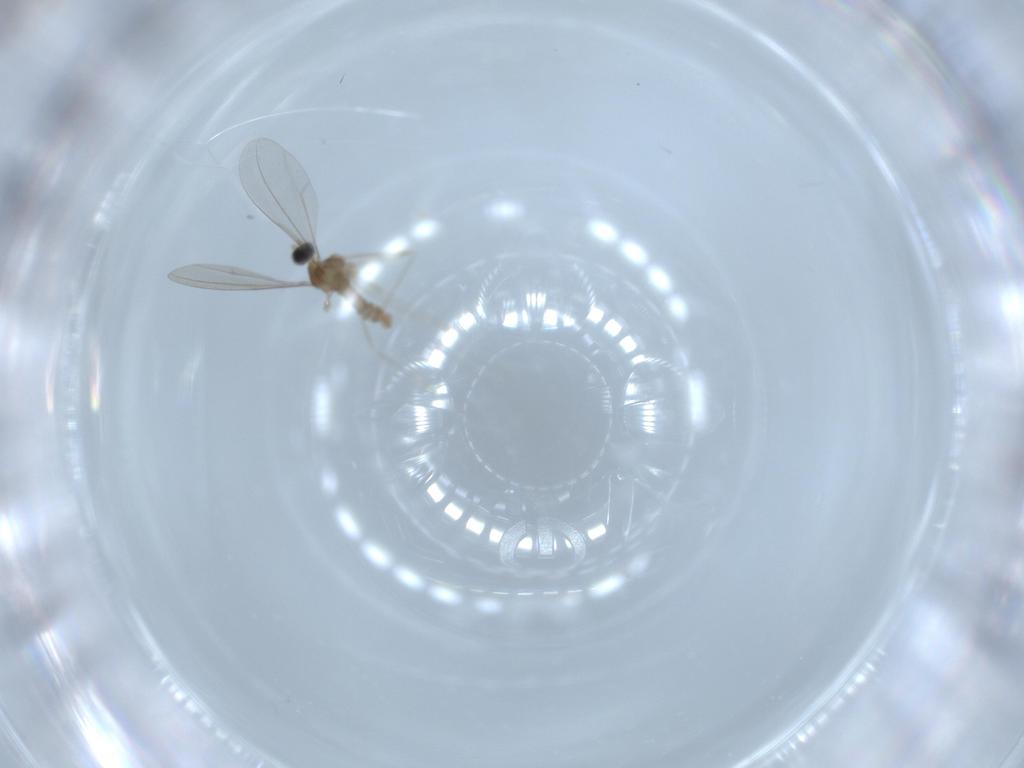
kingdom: Animalia
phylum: Arthropoda
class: Insecta
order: Diptera
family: Cecidomyiidae
